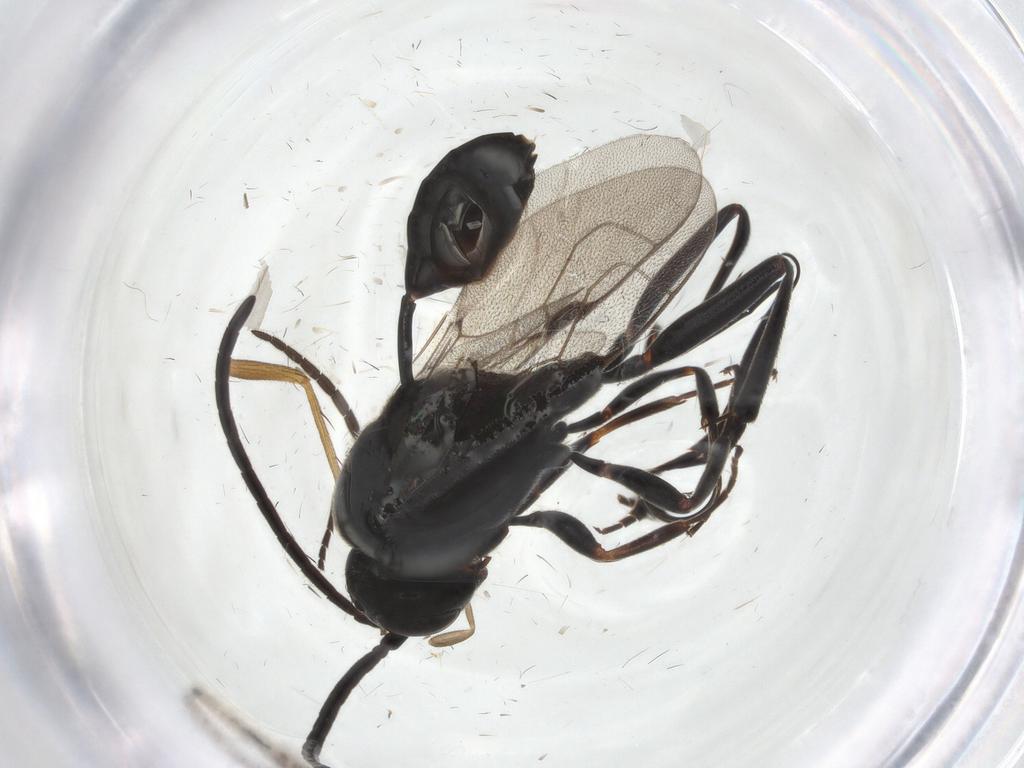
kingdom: Animalia
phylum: Arthropoda
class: Insecta
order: Hymenoptera
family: Evaniidae
